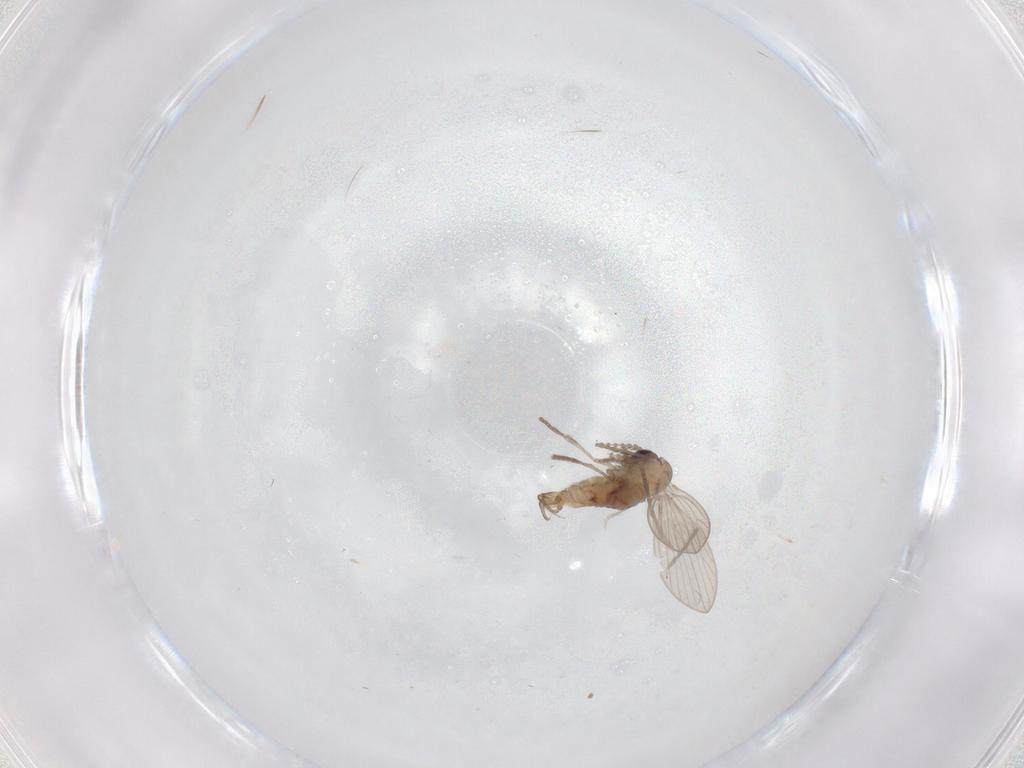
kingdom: Animalia
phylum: Arthropoda
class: Insecta
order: Diptera
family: Psychodidae
